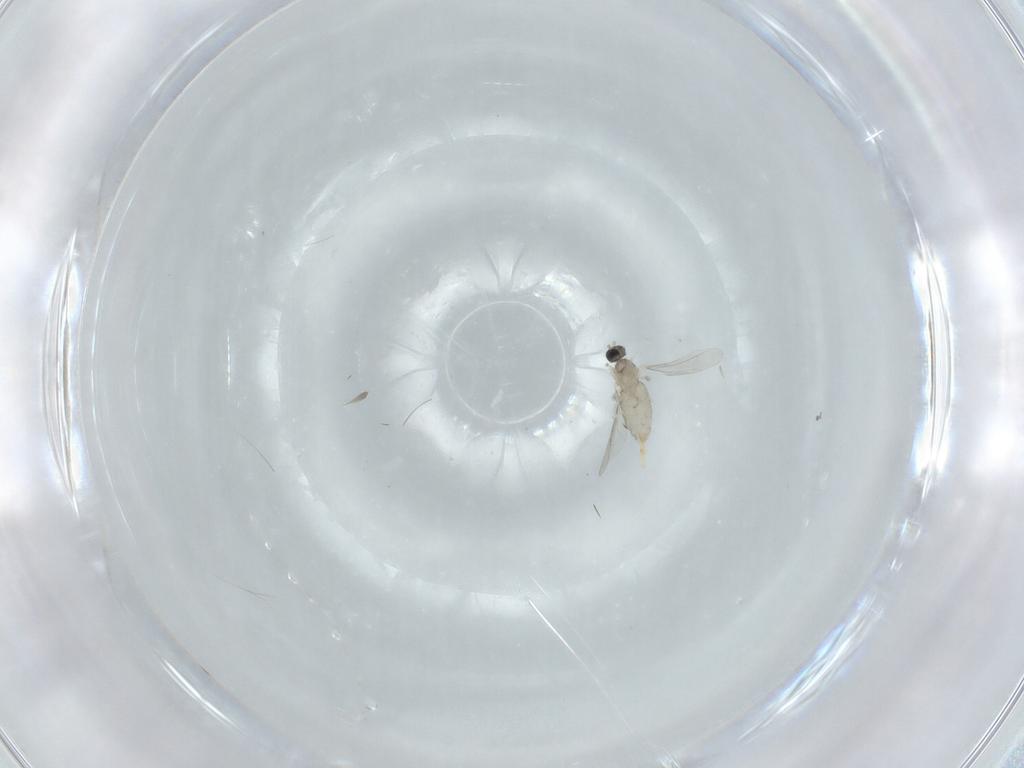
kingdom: Animalia
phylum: Arthropoda
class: Insecta
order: Diptera
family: Cecidomyiidae
